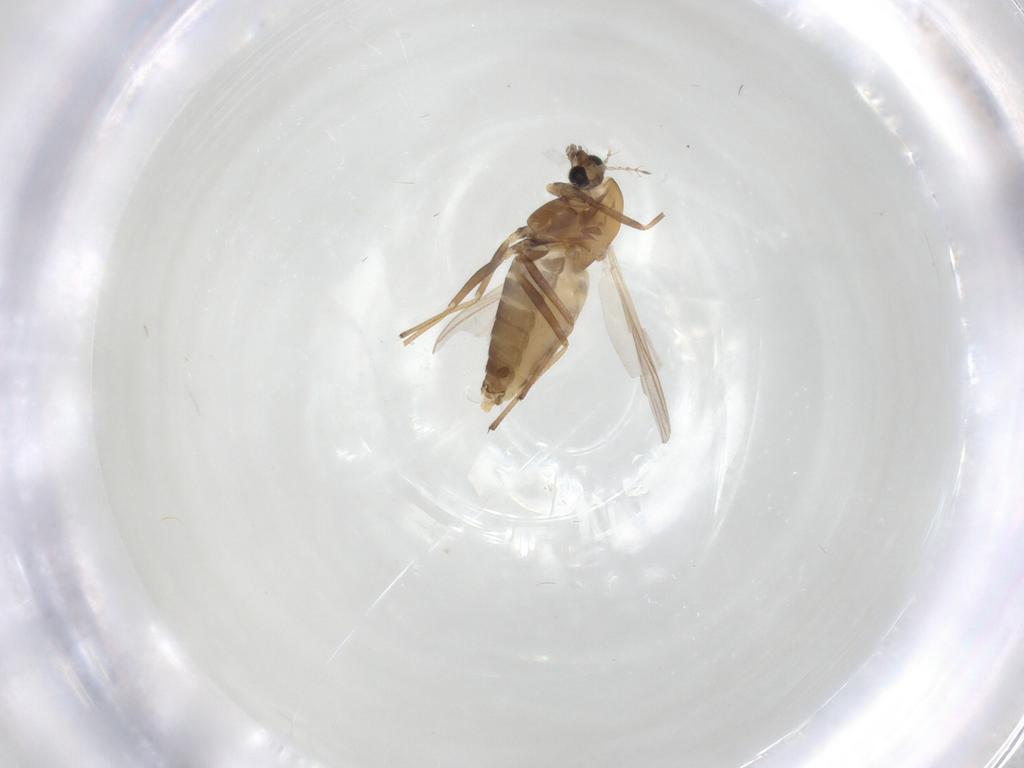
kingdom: Animalia
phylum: Arthropoda
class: Insecta
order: Diptera
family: Chironomidae
